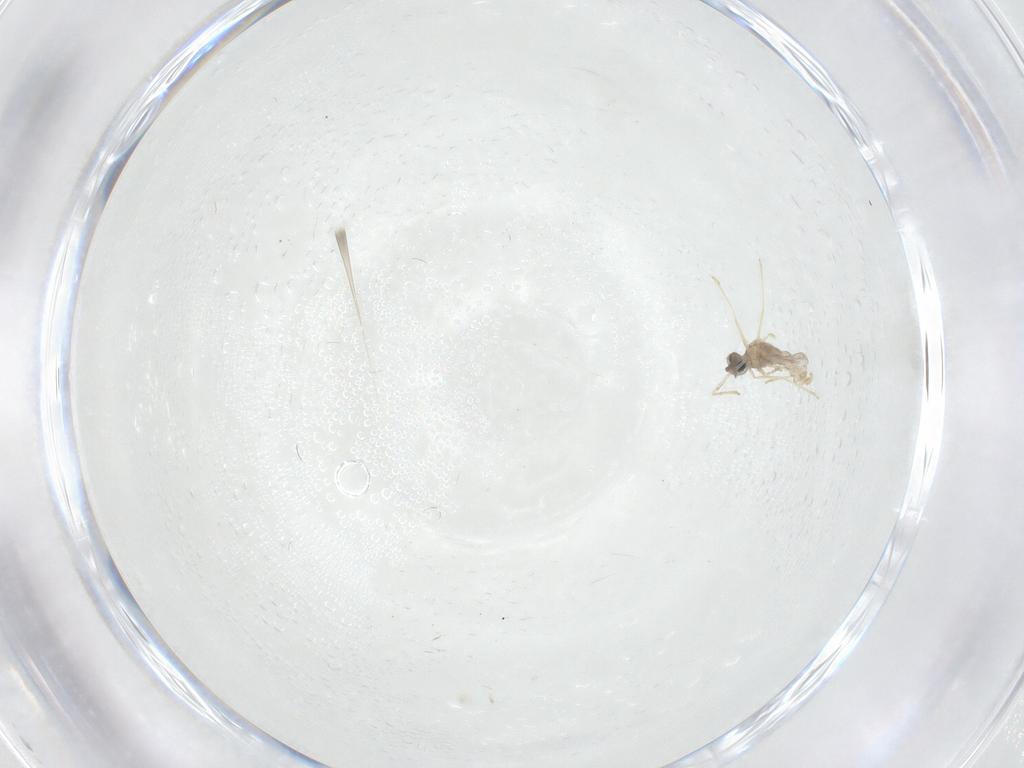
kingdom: Animalia
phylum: Arthropoda
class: Insecta
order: Diptera
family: Cecidomyiidae
